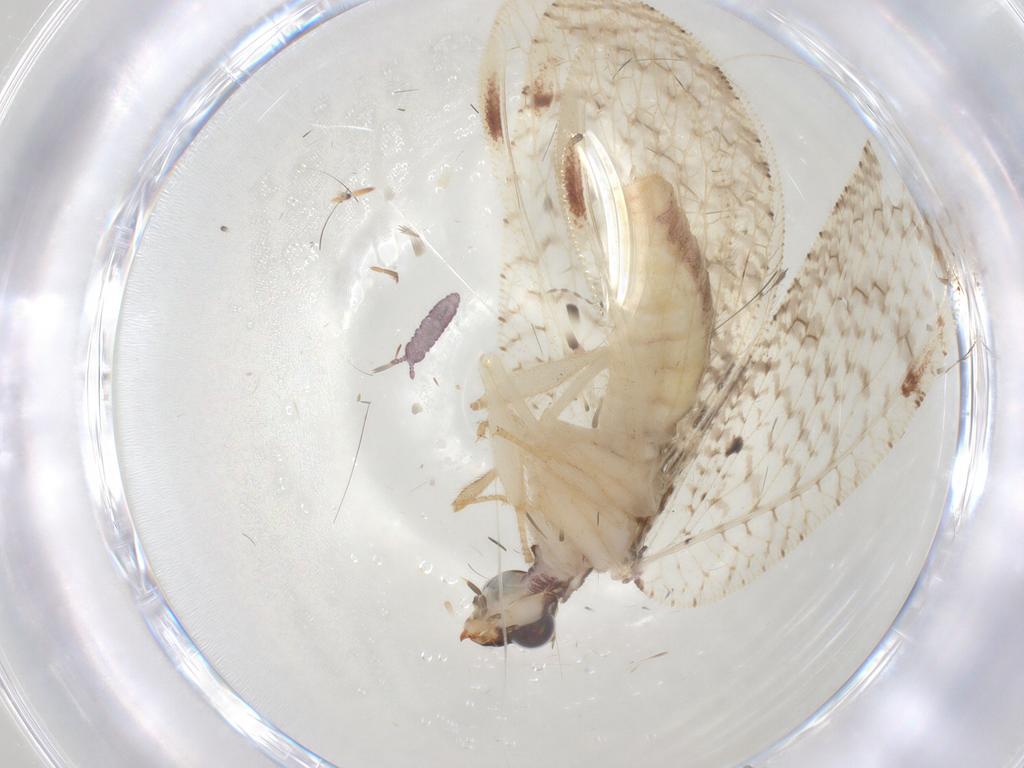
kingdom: Animalia
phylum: Arthropoda
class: Collembola
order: Poduromorpha
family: Hypogastruridae
